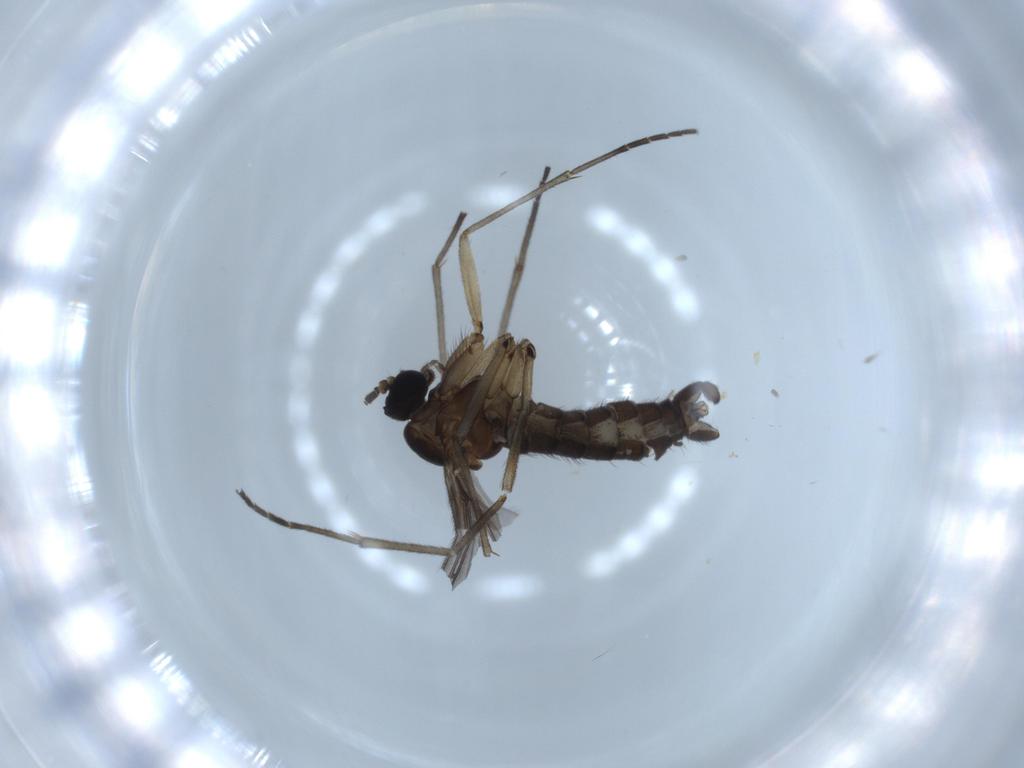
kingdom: Animalia
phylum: Arthropoda
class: Insecta
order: Diptera
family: Sciaridae
